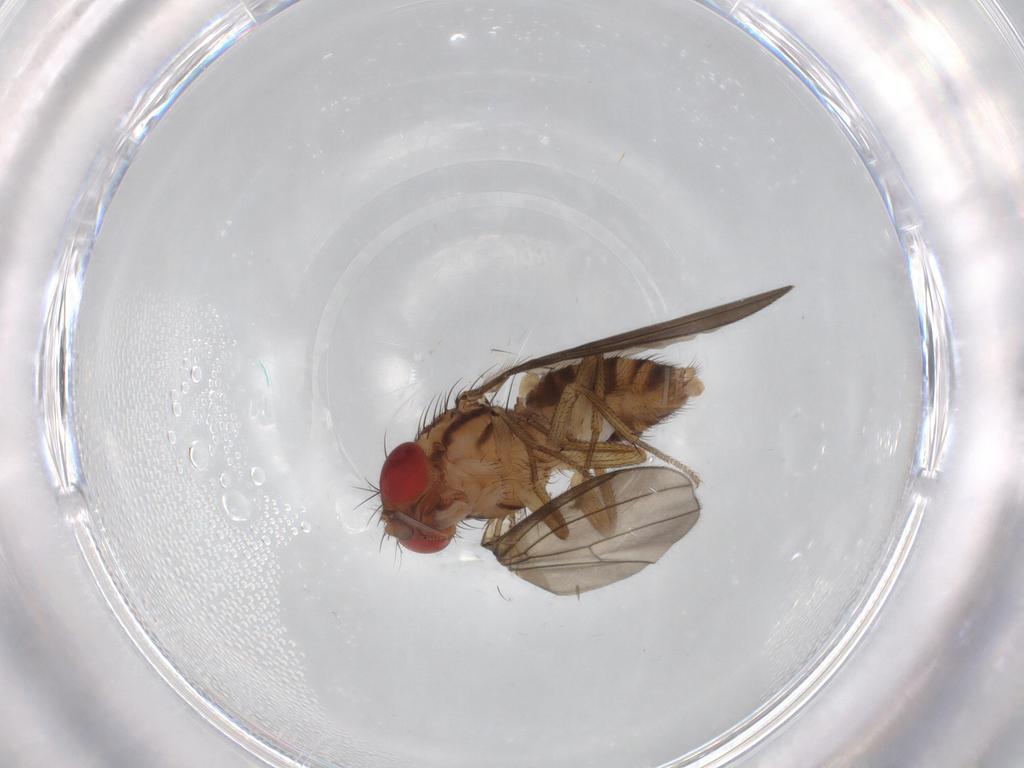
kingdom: Animalia
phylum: Arthropoda
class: Insecta
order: Diptera
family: Drosophilidae
